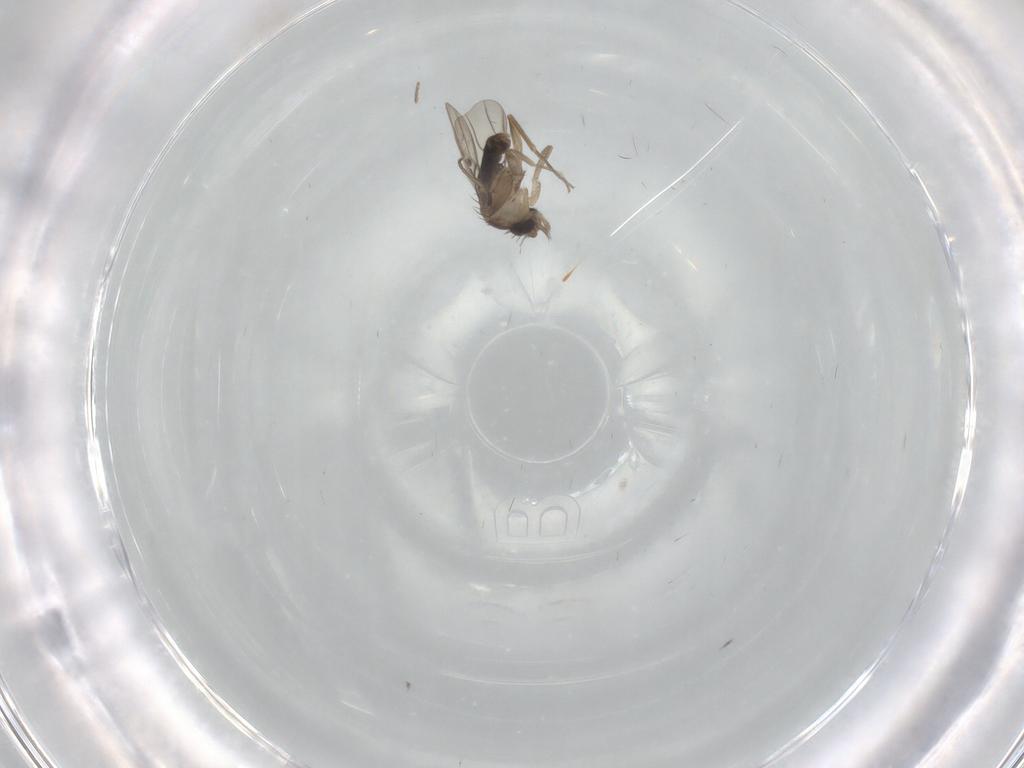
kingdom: Animalia
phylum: Arthropoda
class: Insecta
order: Diptera
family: Phoridae
